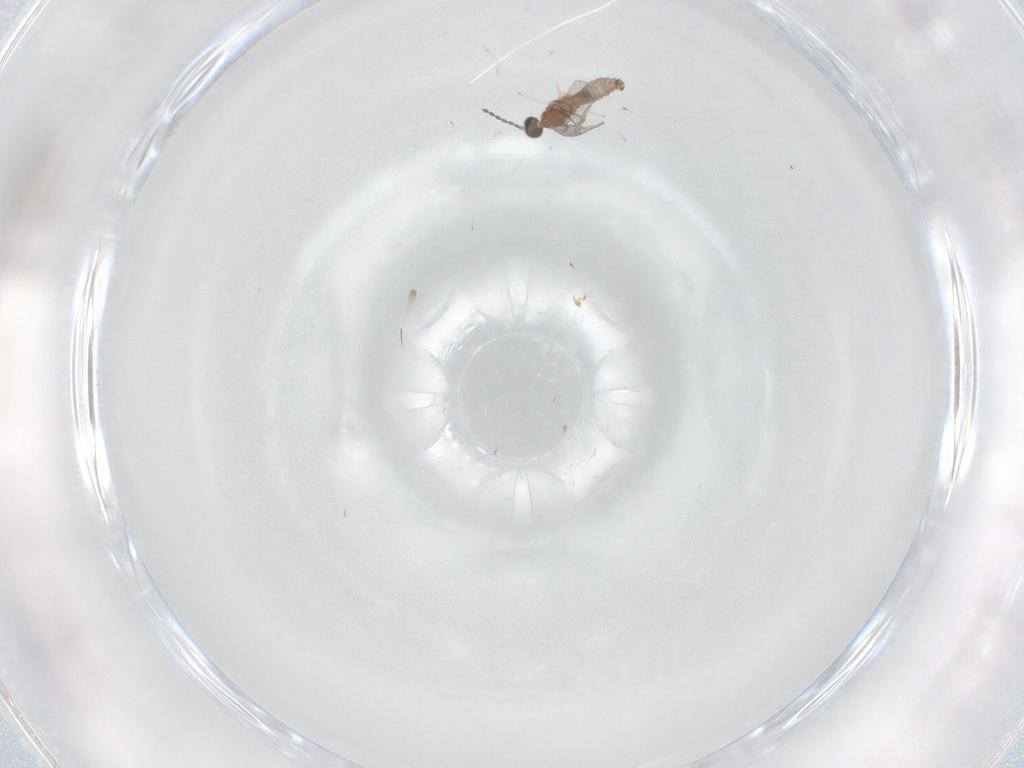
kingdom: Animalia
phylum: Arthropoda
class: Insecta
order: Diptera
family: Sciaridae
